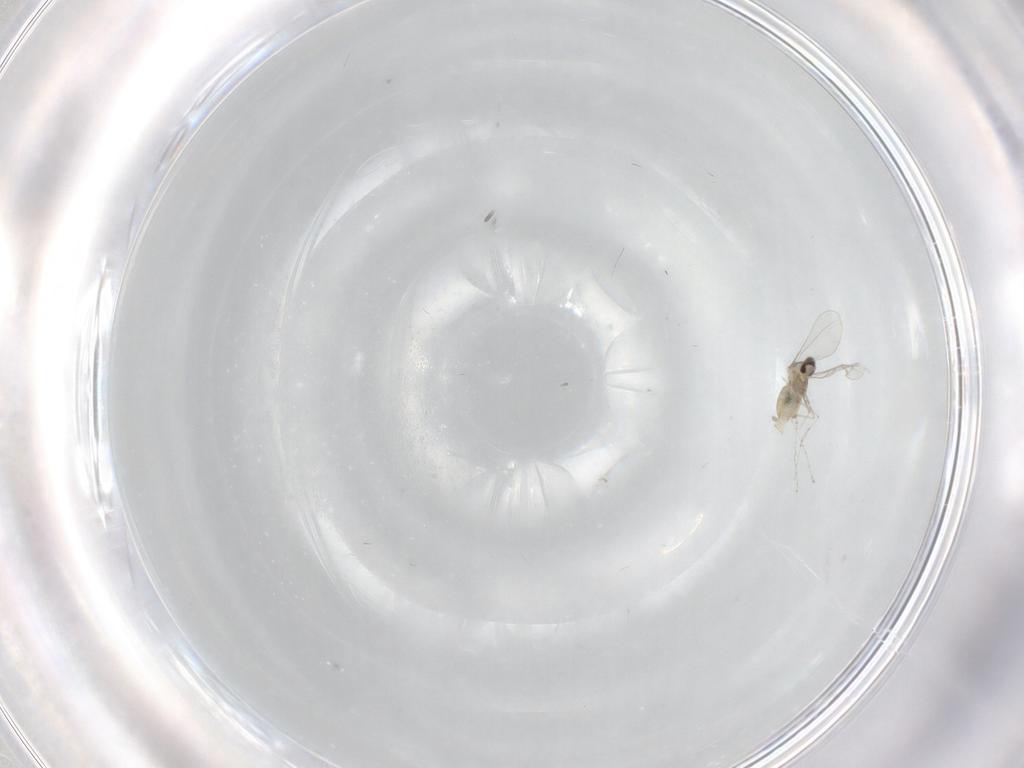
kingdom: Animalia
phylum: Arthropoda
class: Insecta
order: Diptera
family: Cecidomyiidae
